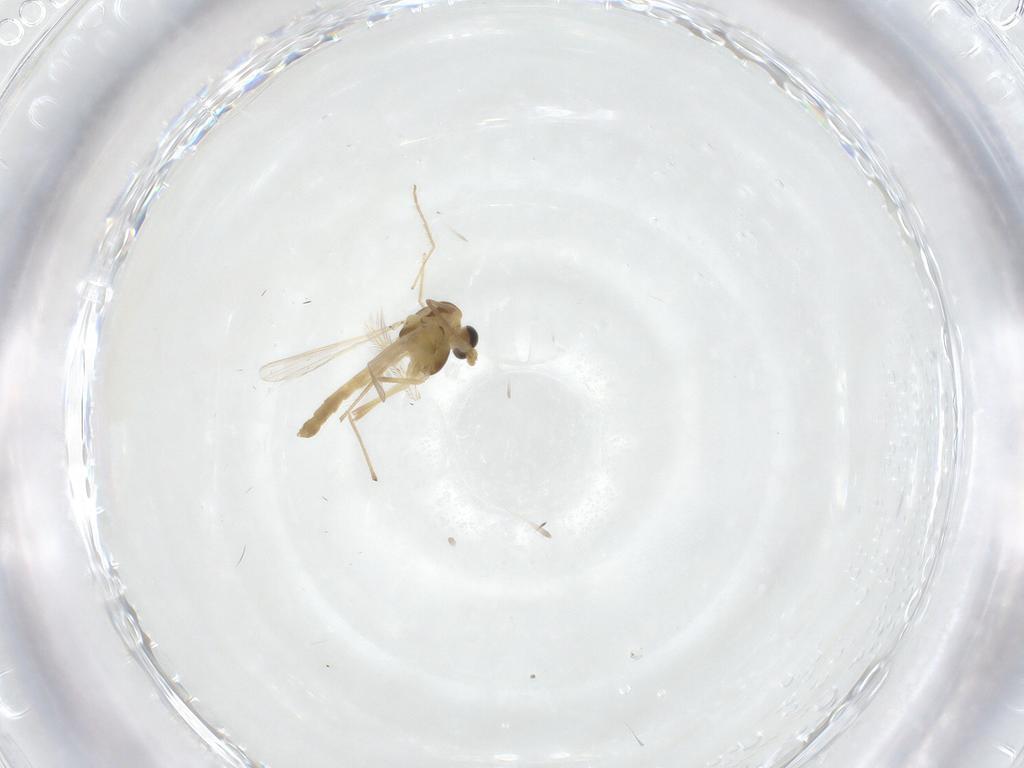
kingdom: Animalia
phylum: Arthropoda
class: Insecta
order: Diptera
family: Chironomidae
